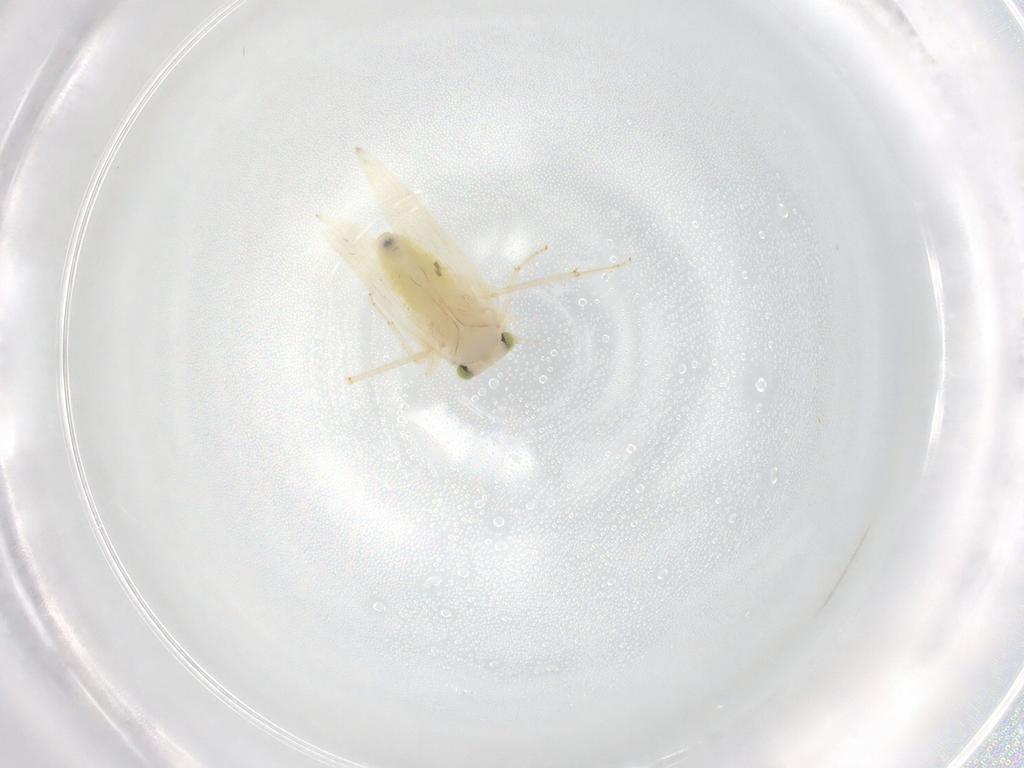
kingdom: Animalia
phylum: Arthropoda
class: Insecta
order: Psocodea
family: Lepidopsocidae
